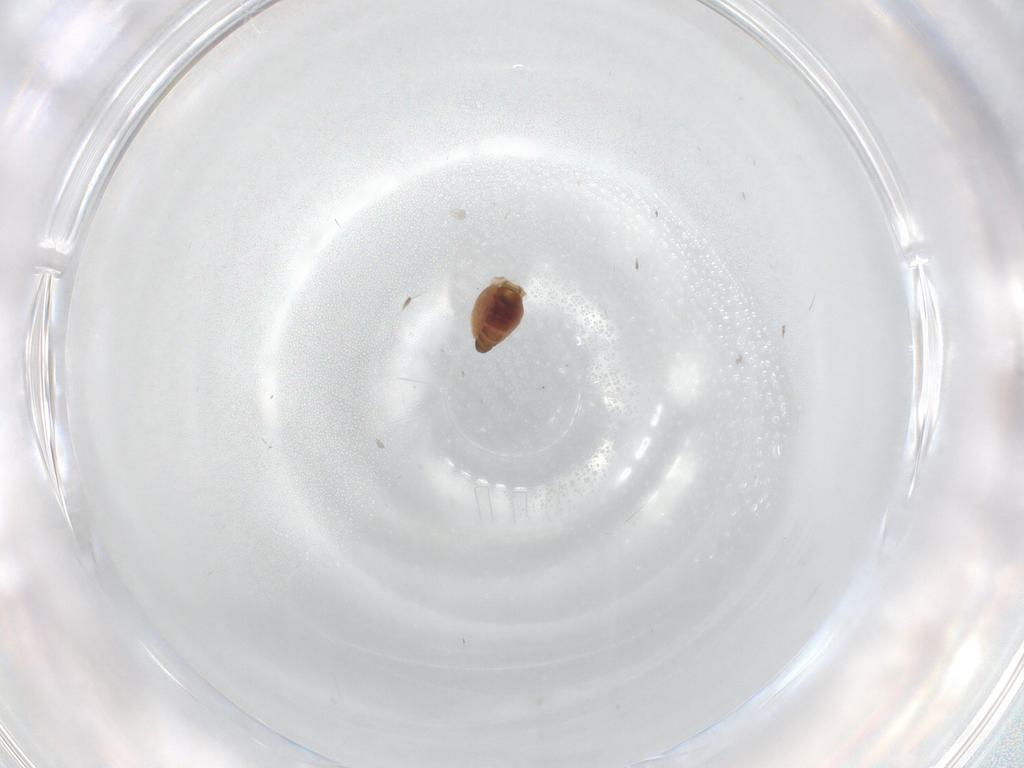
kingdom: Animalia
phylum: Arthropoda
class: Insecta
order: Diptera
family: Ceratopogonidae
